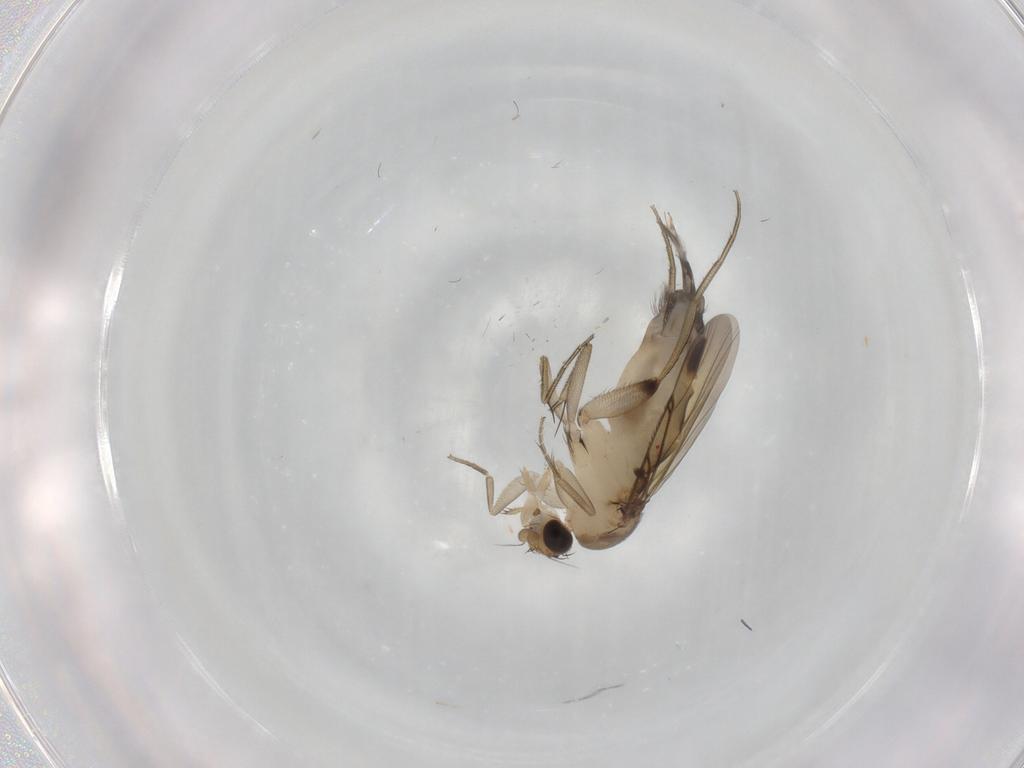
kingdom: Animalia
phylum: Arthropoda
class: Insecta
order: Diptera
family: Phoridae
